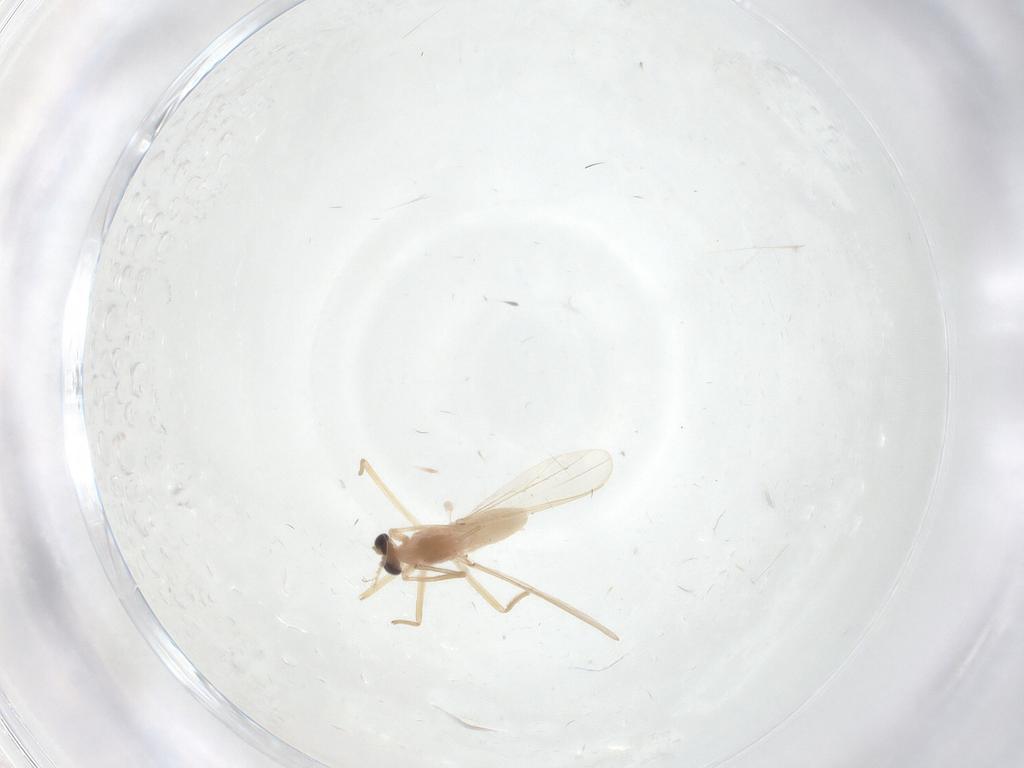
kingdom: Animalia
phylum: Arthropoda
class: Insecta
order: Diptera
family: Chironomidae
